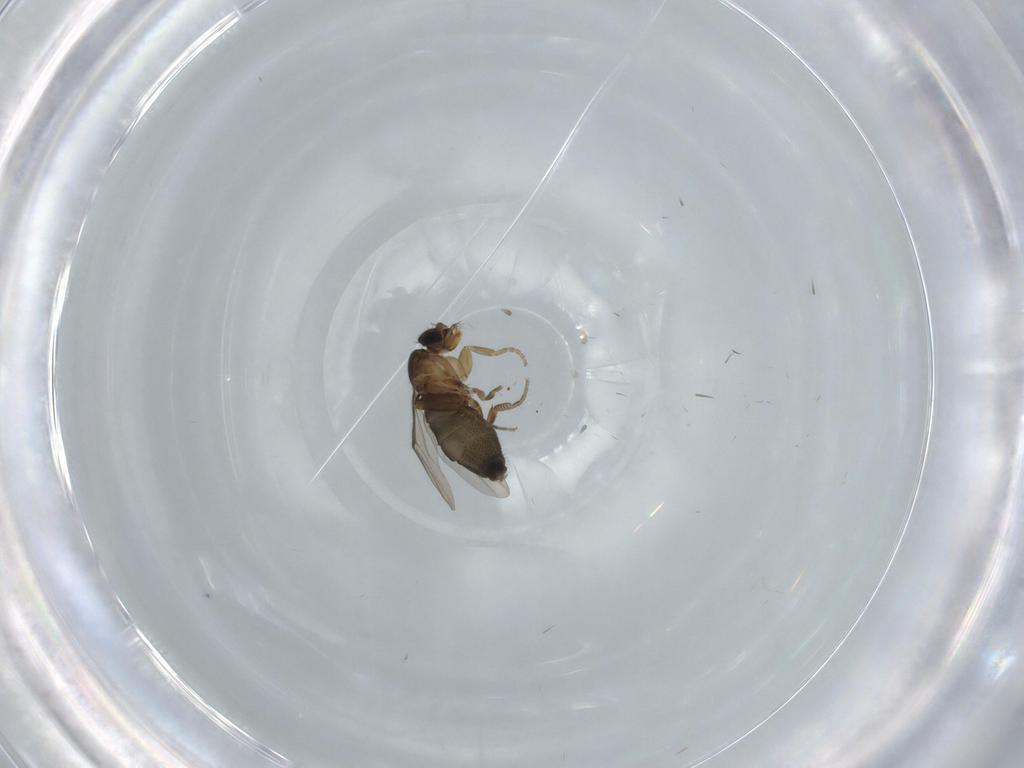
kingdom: Animalia
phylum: Arthropoda
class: Insecta
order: Diptera
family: Phoridae
